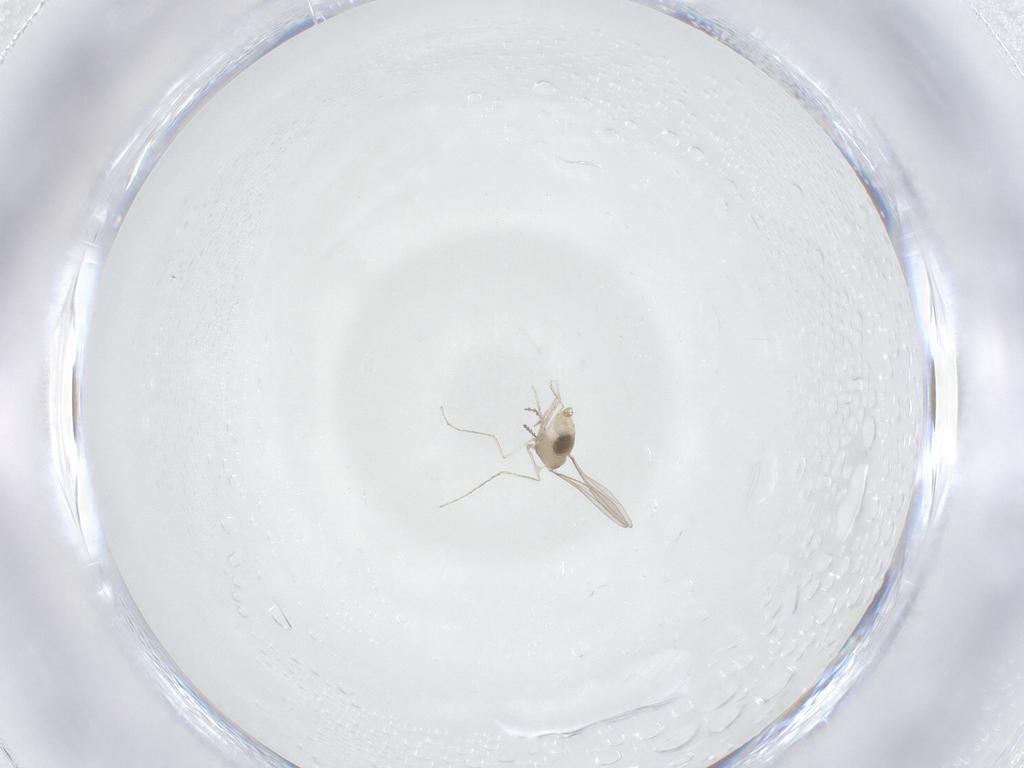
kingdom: Animalia
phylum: Arthropoda
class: Insecta
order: Diptera
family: Cecidomyiidae
